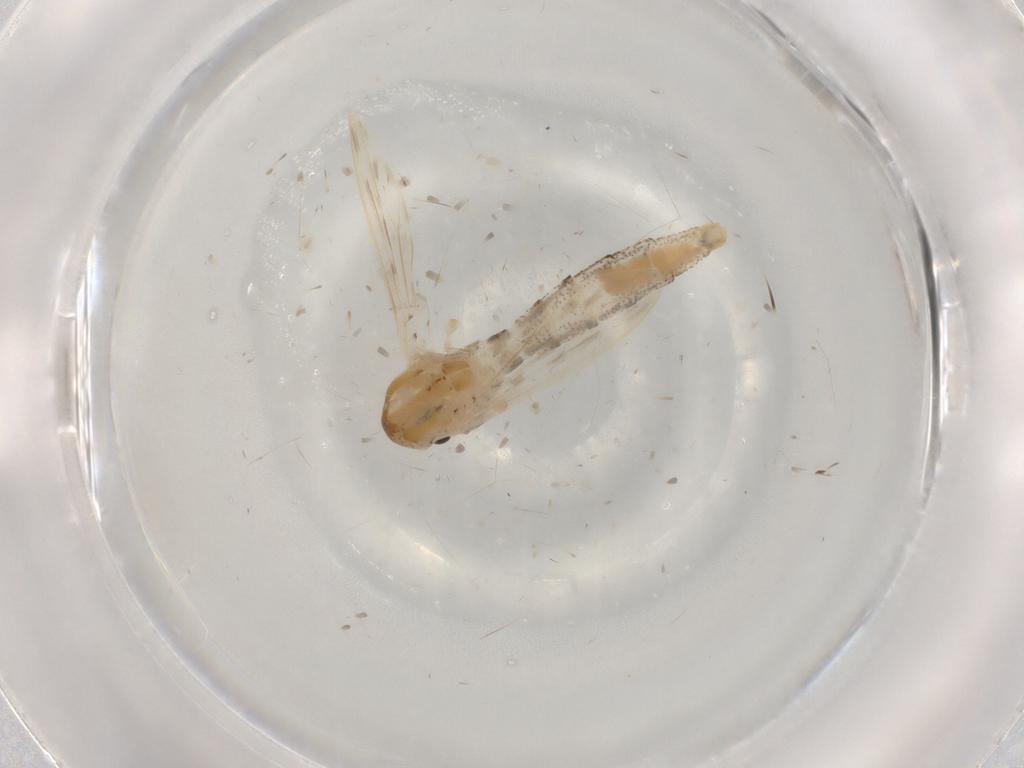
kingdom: Animalia
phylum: Arthropoda
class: Insecta
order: Diptera
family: Chaoboridae
